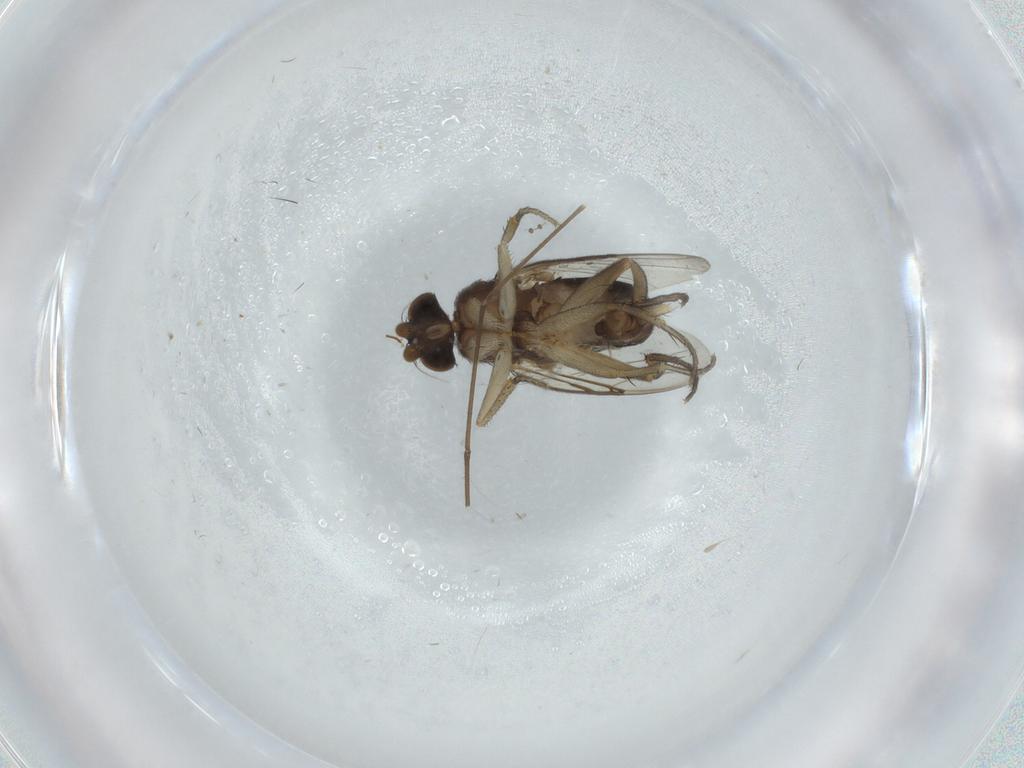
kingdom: Animalia
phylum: Arthropoda
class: Insecta
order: Diptera
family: Phoridae
